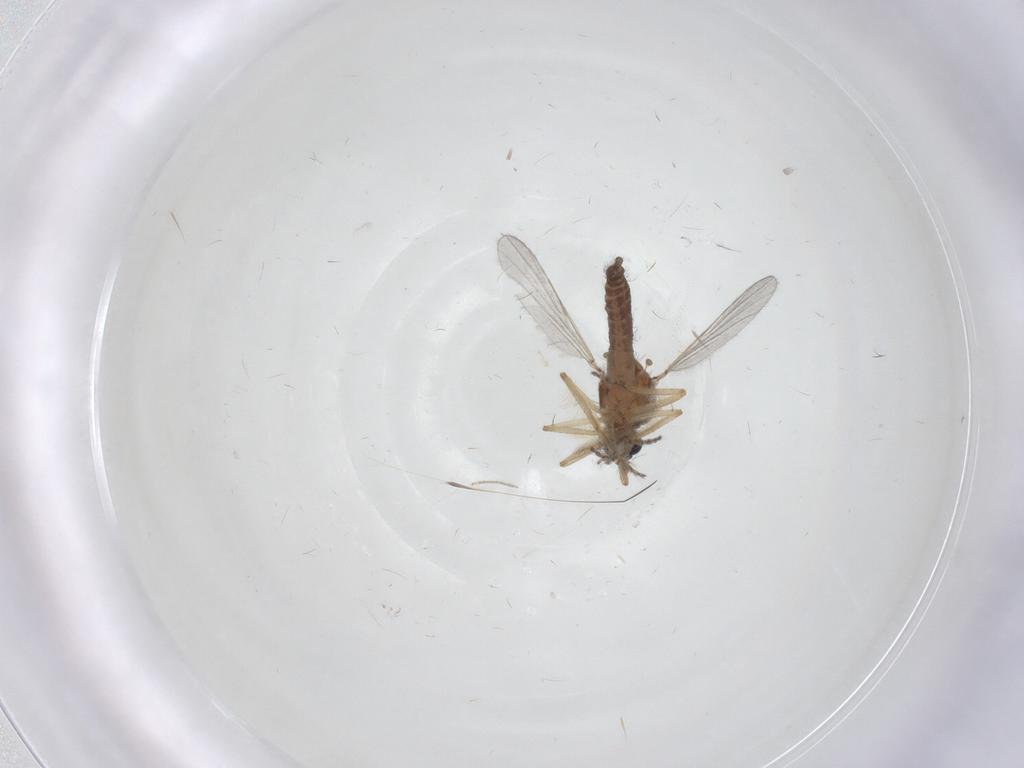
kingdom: Animalia
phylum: Arthropoda
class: Insecta
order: Diptera
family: Ceratopogonidae
